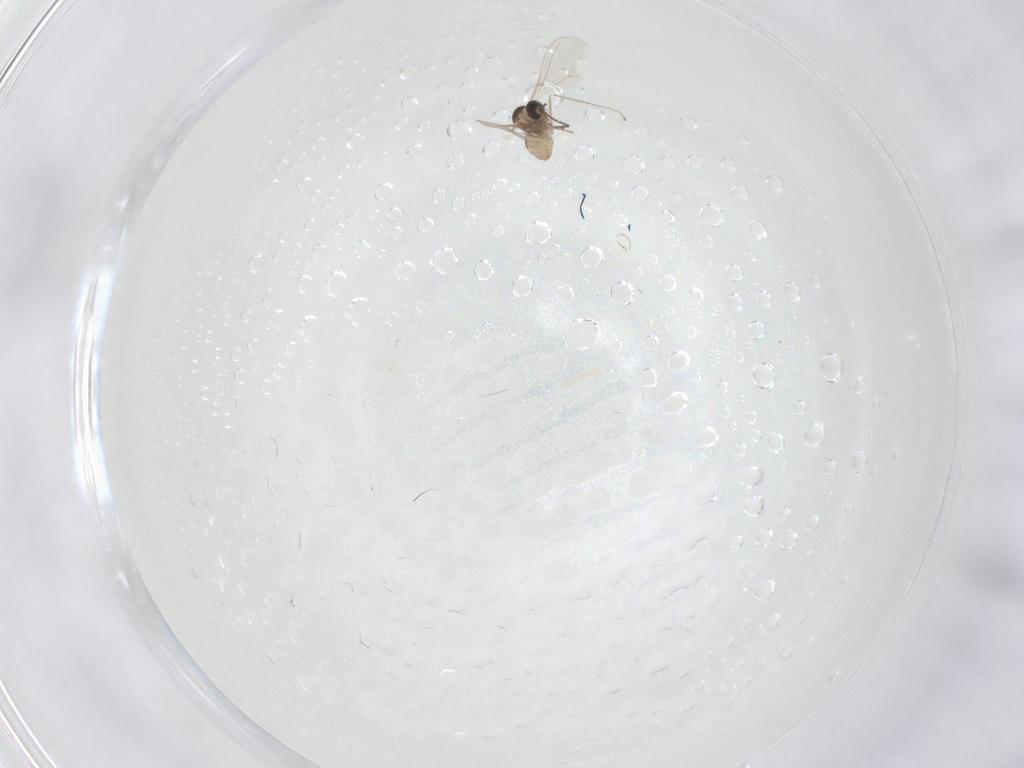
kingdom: Animalia
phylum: Arthropoda
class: Insecta
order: Diptera
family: Cecidomyiidae
